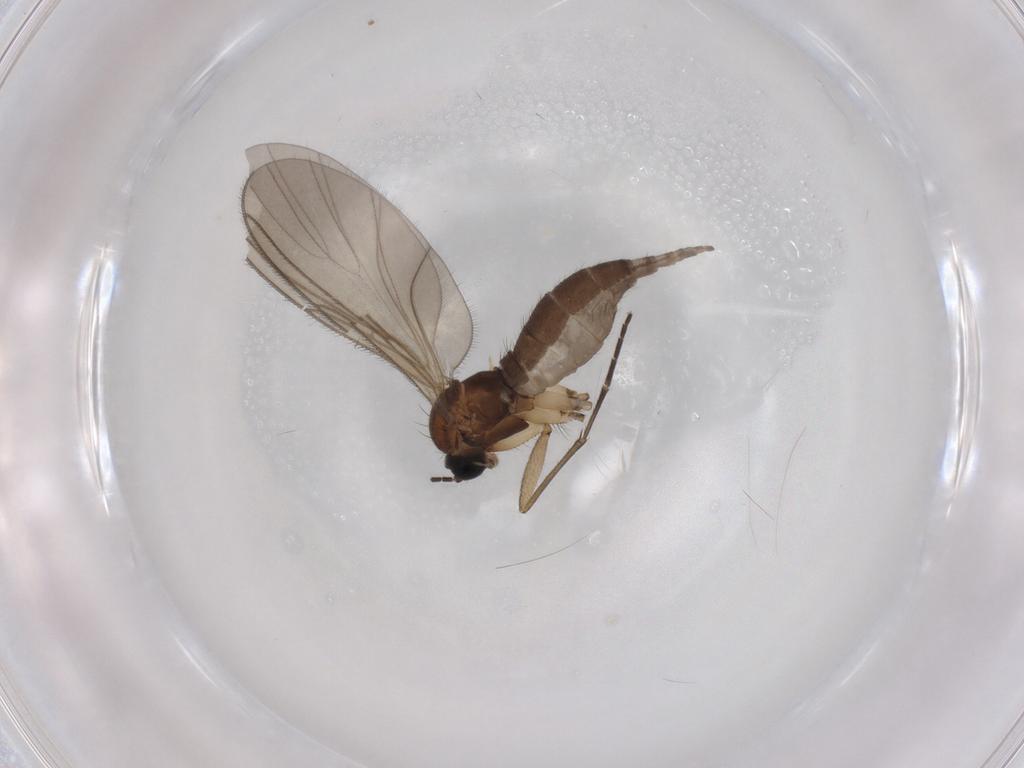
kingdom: Animalia
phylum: Arthropoda
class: Insecta
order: Diptera
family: Sciaridae
